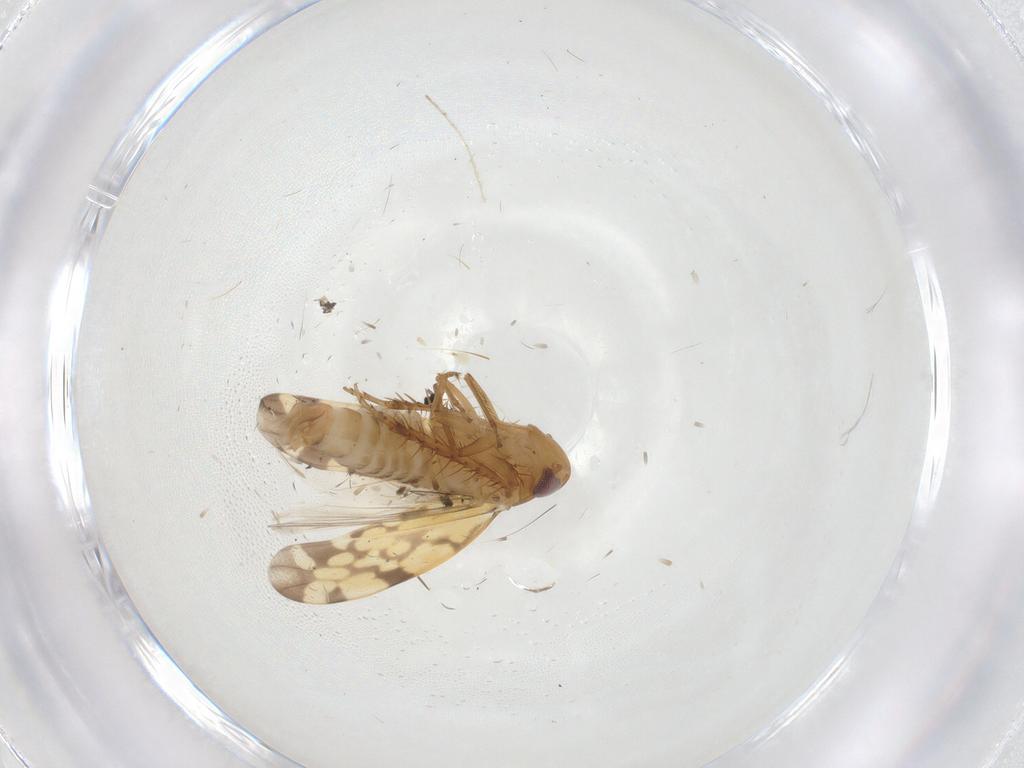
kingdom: Animalia
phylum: Arthropoda
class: Insecta
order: Hemiptera
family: Cicadellidae
